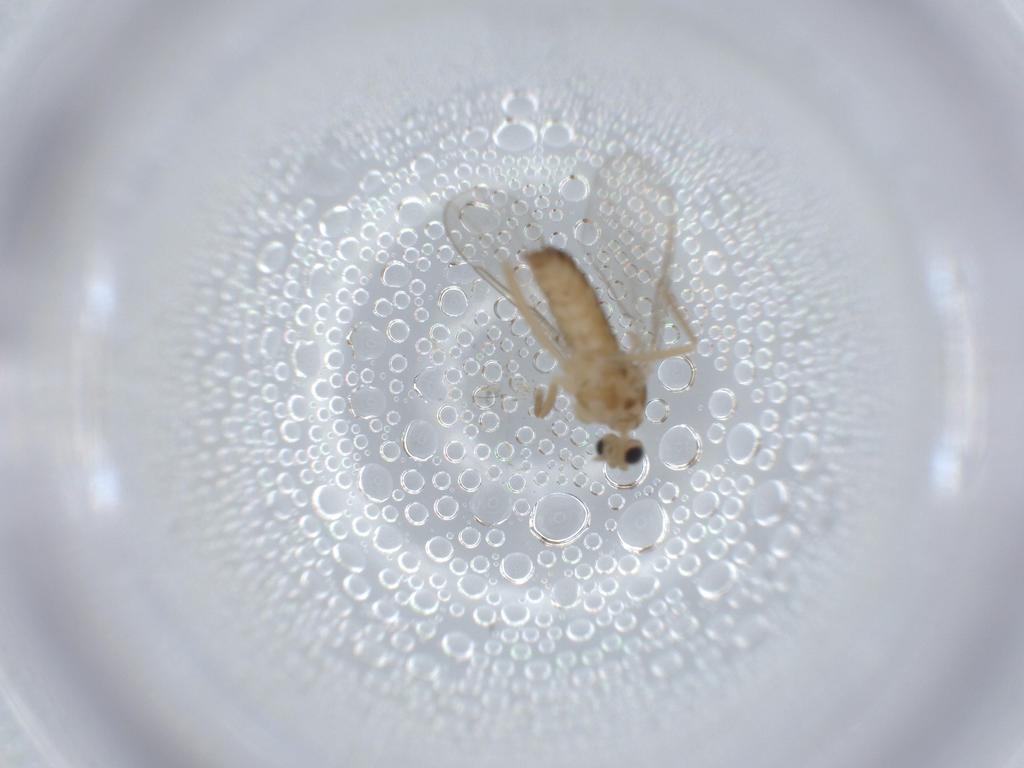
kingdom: Animalia
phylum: Arthropoda
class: Insecta
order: Diptera
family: Cecidomyiidae
